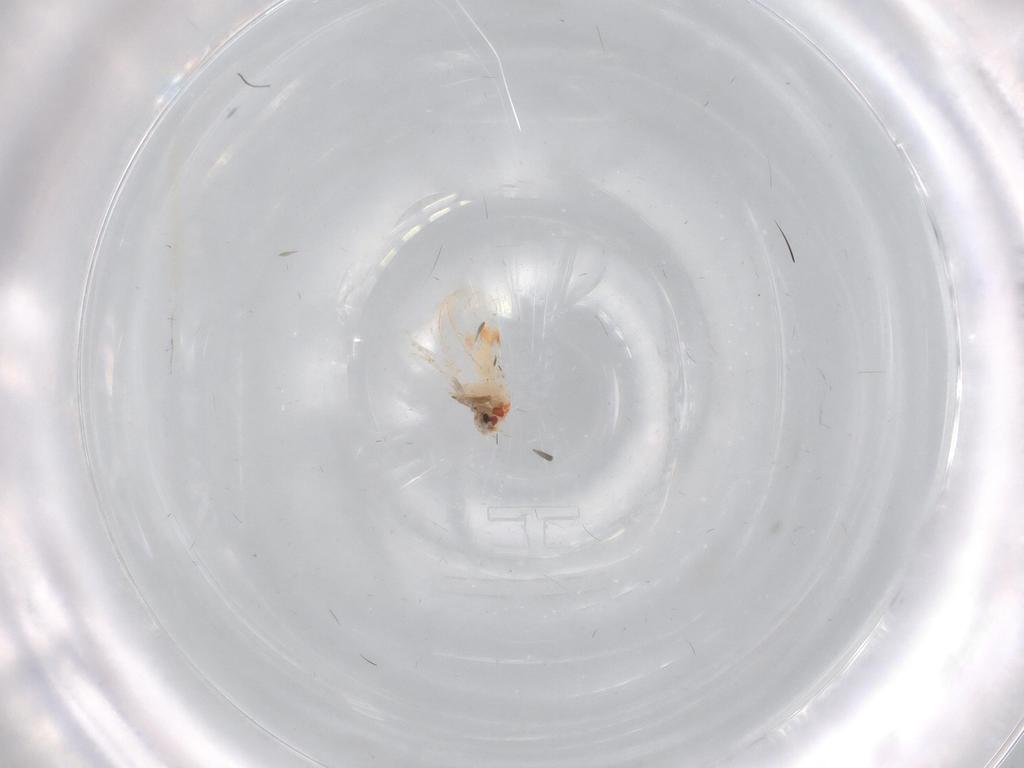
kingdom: Animalia
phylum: Arthropoda
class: Insecta
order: Hemiptera
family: Aleyrodidae
